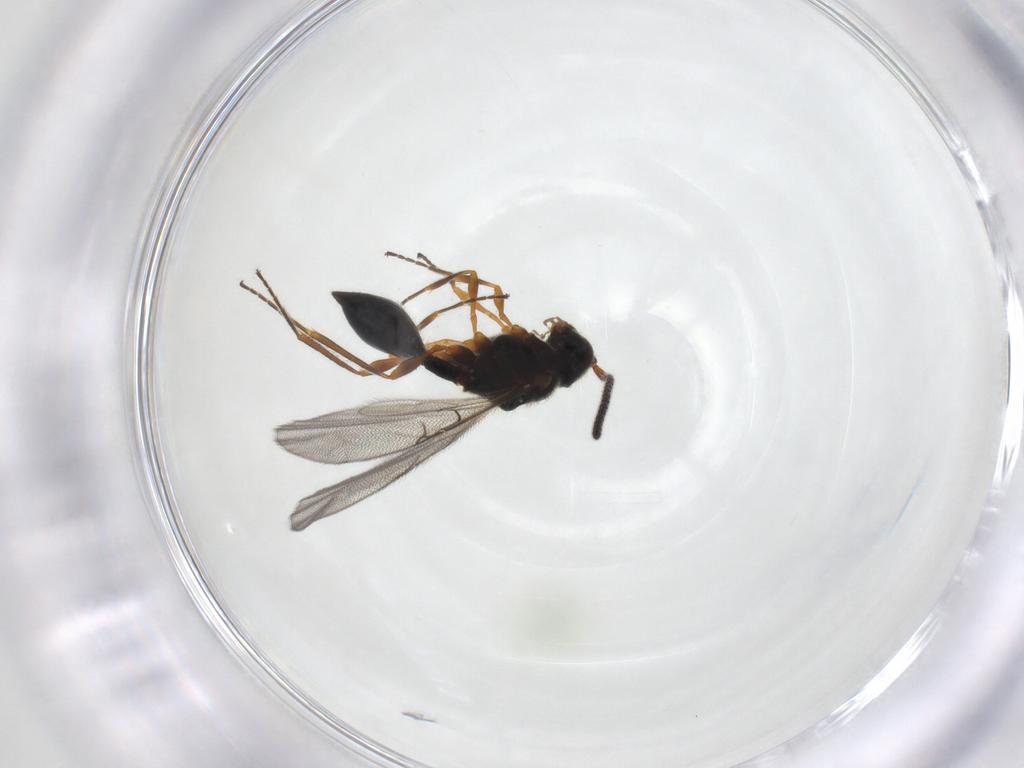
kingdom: Animalia
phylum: Arthropoda
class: Insecta
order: Hymenoptera
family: Diapriidae
